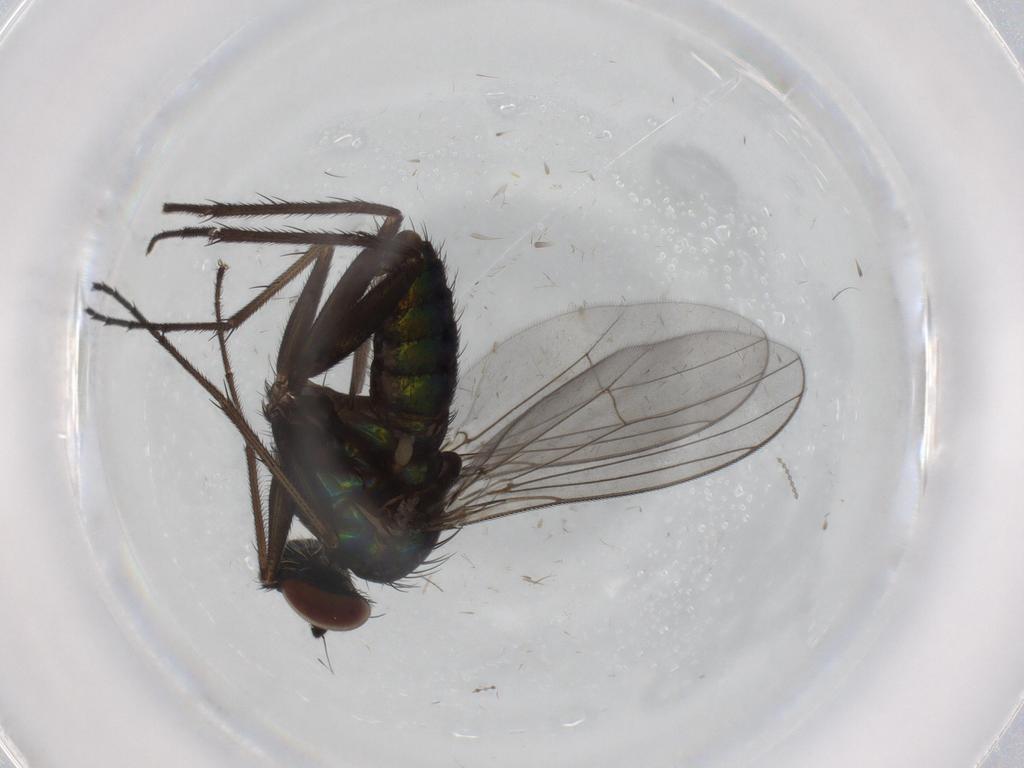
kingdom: Animalia
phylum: Arthropoda
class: Insecta
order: Diptera
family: Dolichopodidae
